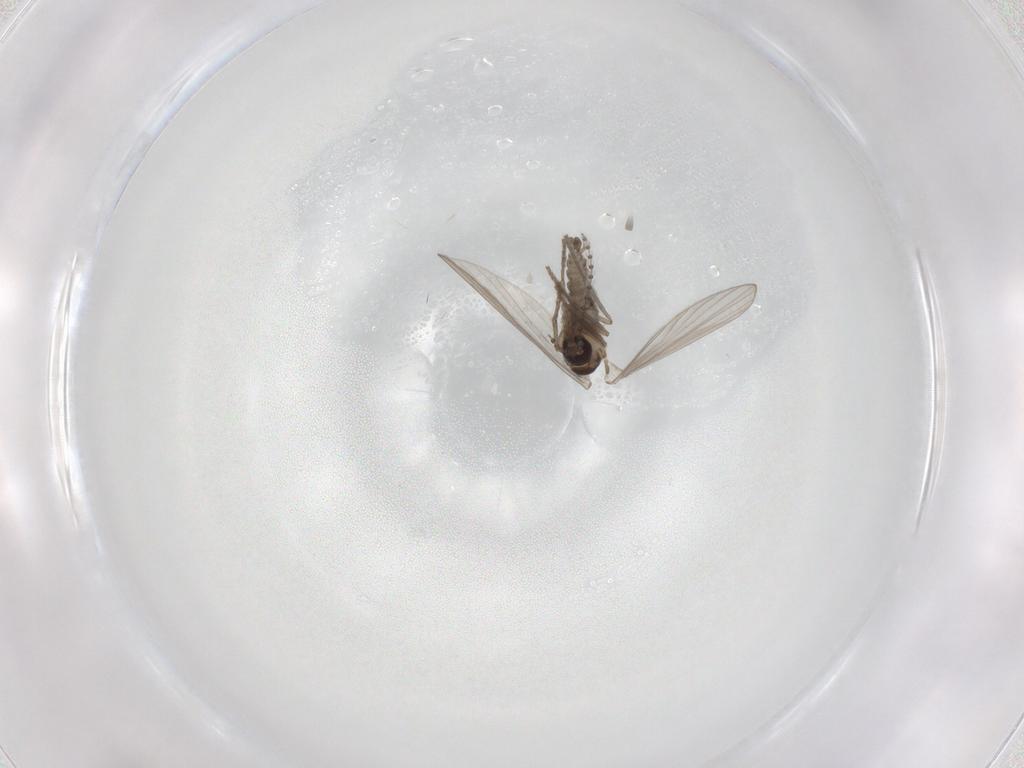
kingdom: Animalia
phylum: Arthropoda
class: Insecta
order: Diptera
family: Psychodidae
